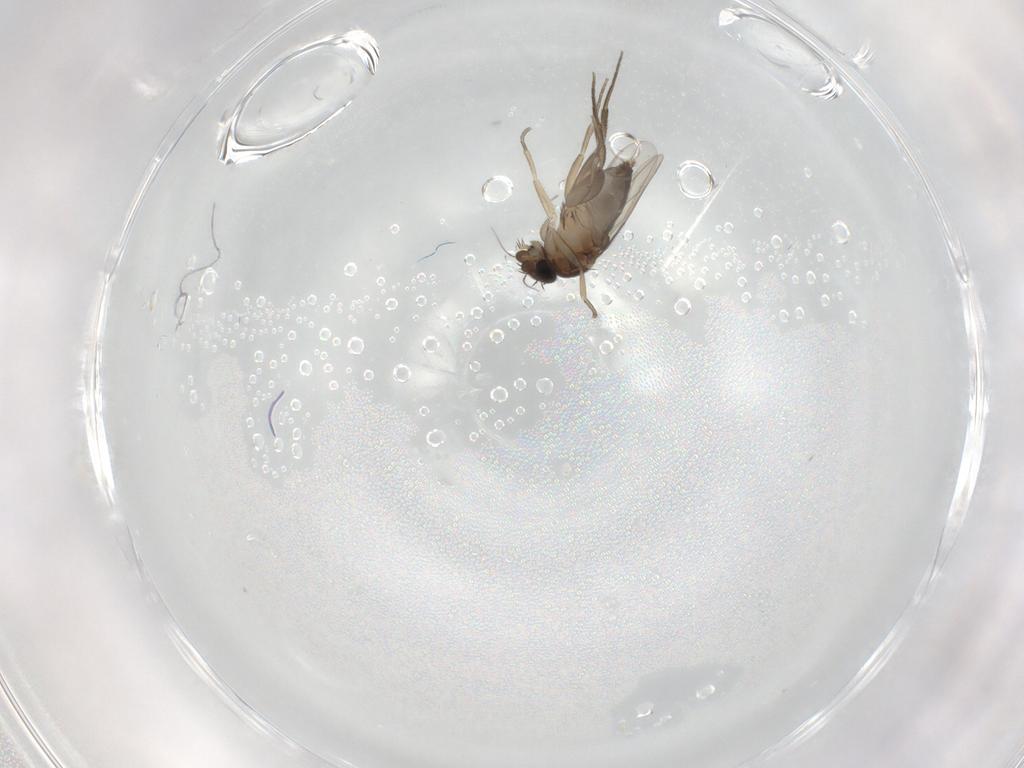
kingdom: Animalia
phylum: Arthropoda
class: Insecta
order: Diptera
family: Phoridae
